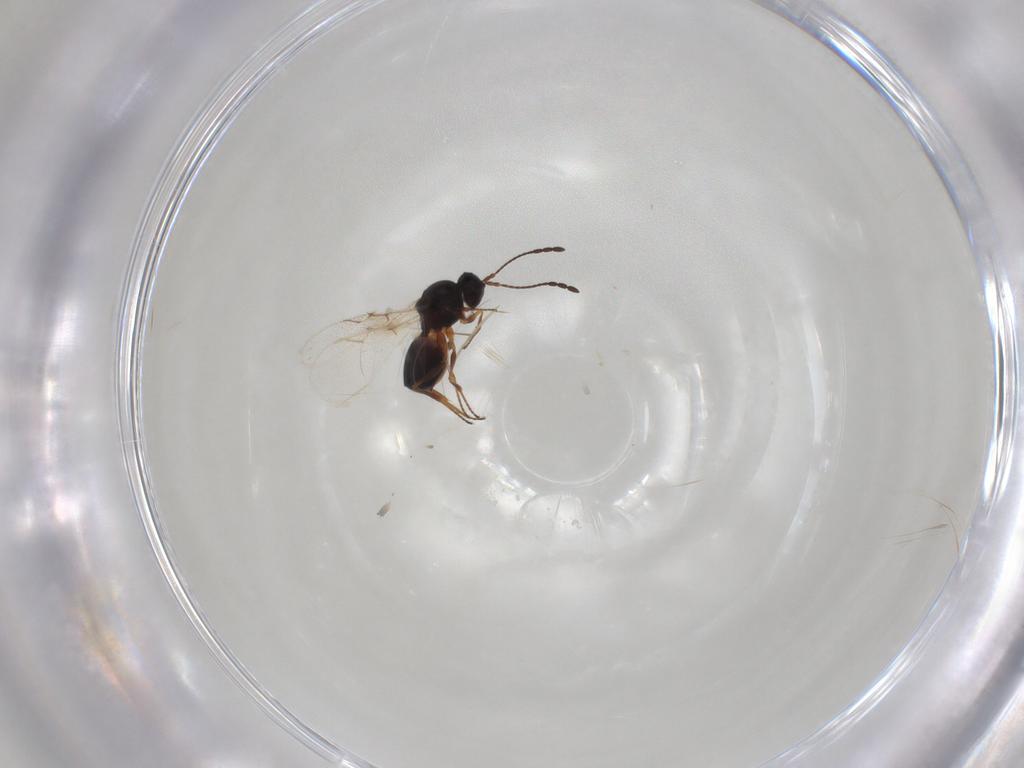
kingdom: Animalia
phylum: Arthropoda
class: Insecta
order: Hymenoptera
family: Figitidae
